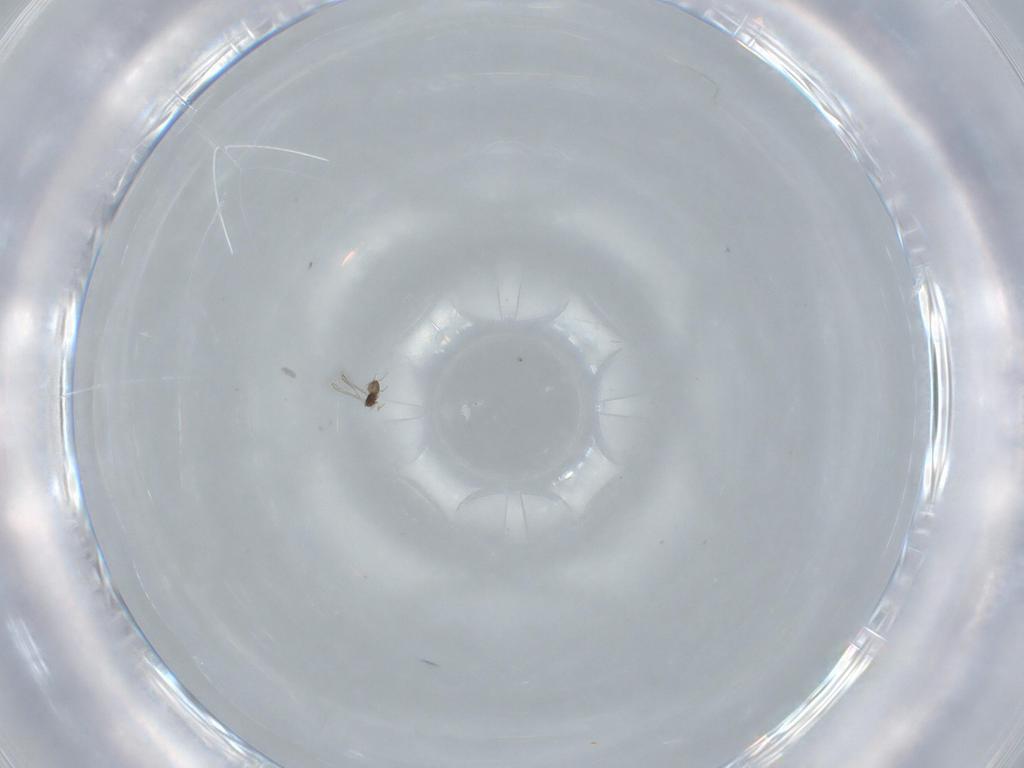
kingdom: Animalia
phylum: Arthropoda
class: Insecta
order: Hymenoptera
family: Scelionidae
